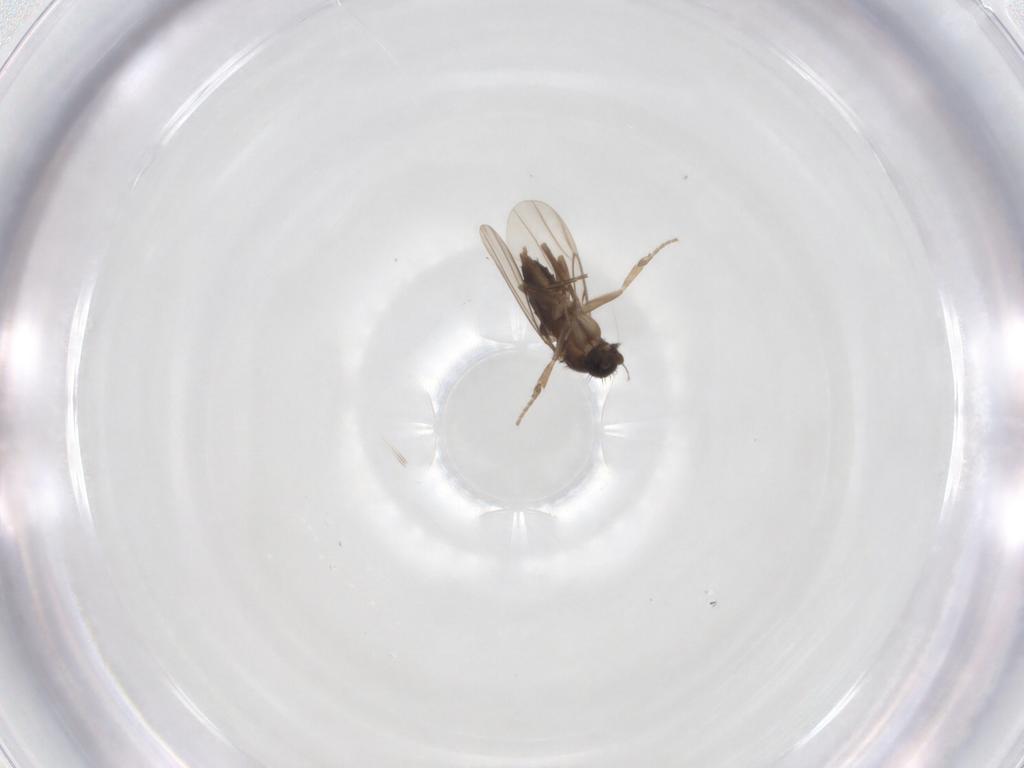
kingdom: Animalia
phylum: Arthropoda
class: Insecta
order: Diptera
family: Phoridae
